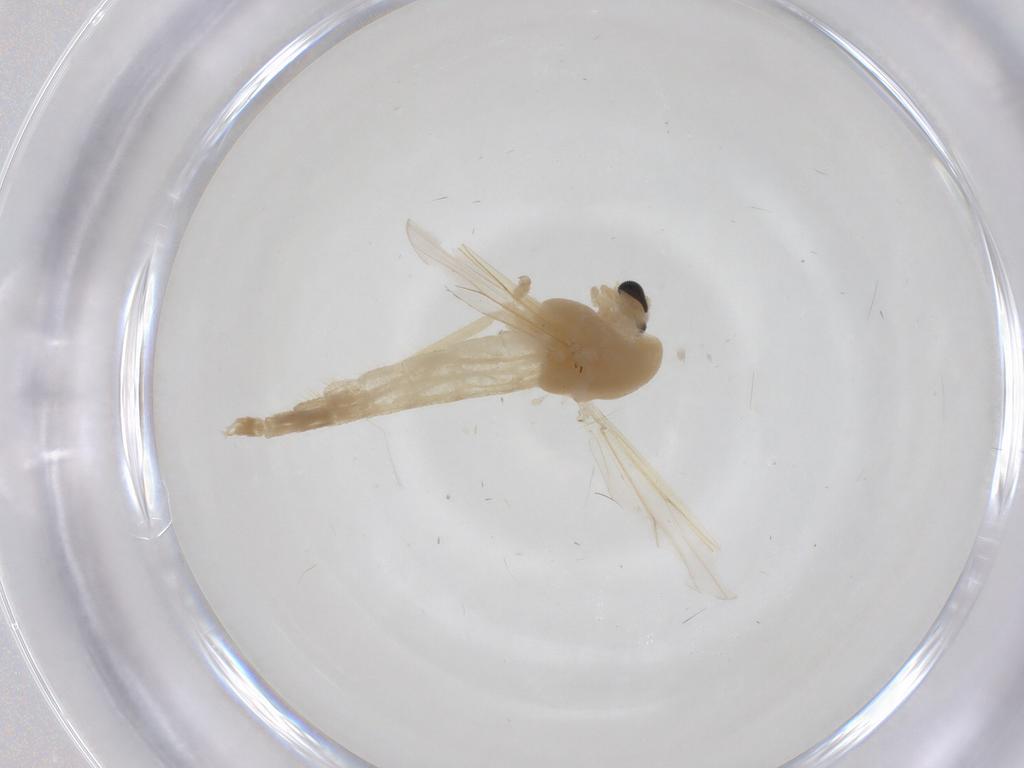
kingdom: Animalia
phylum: Arthropoda
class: Insecta
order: Diptera
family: Chironomidae
